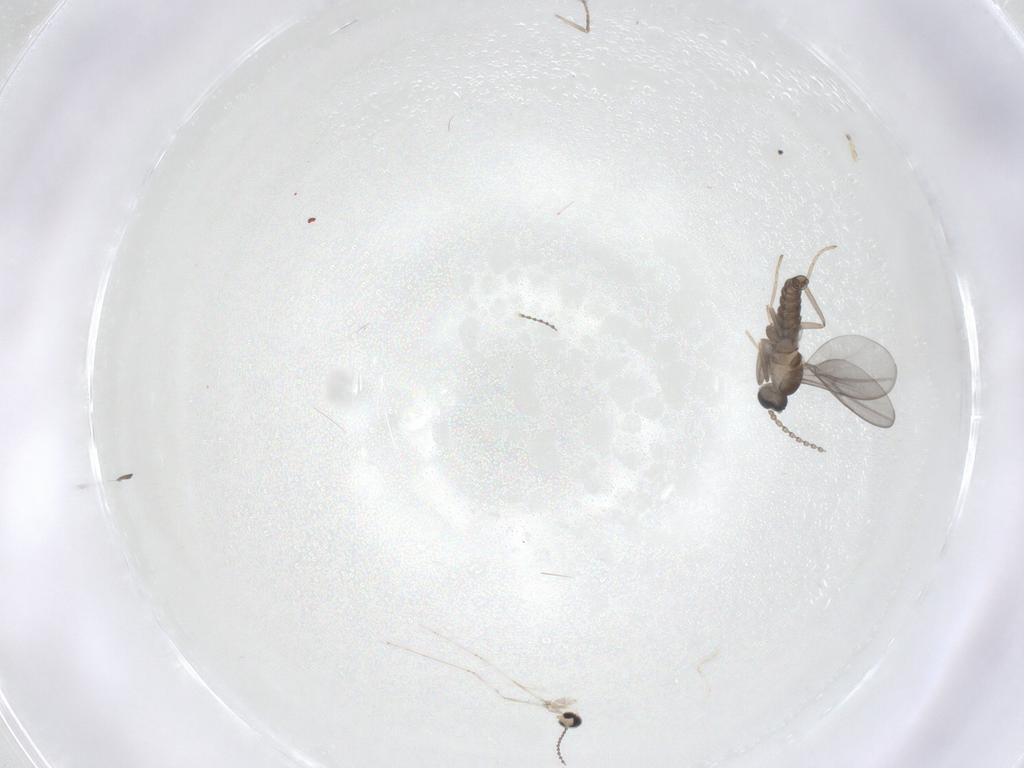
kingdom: Animalia
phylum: Arthropoda
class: Insecta
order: Diptera
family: Cecidomyiidae
